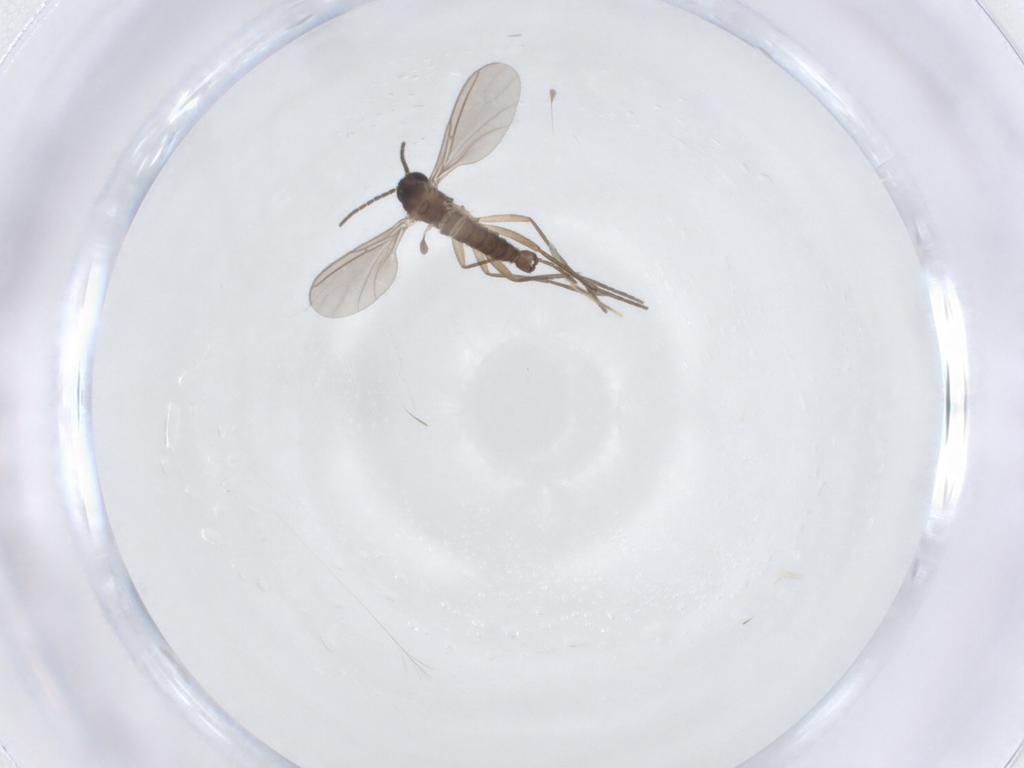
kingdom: Animalia
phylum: Arthropoda
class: Insecta
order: Diptera
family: Sciaridae
